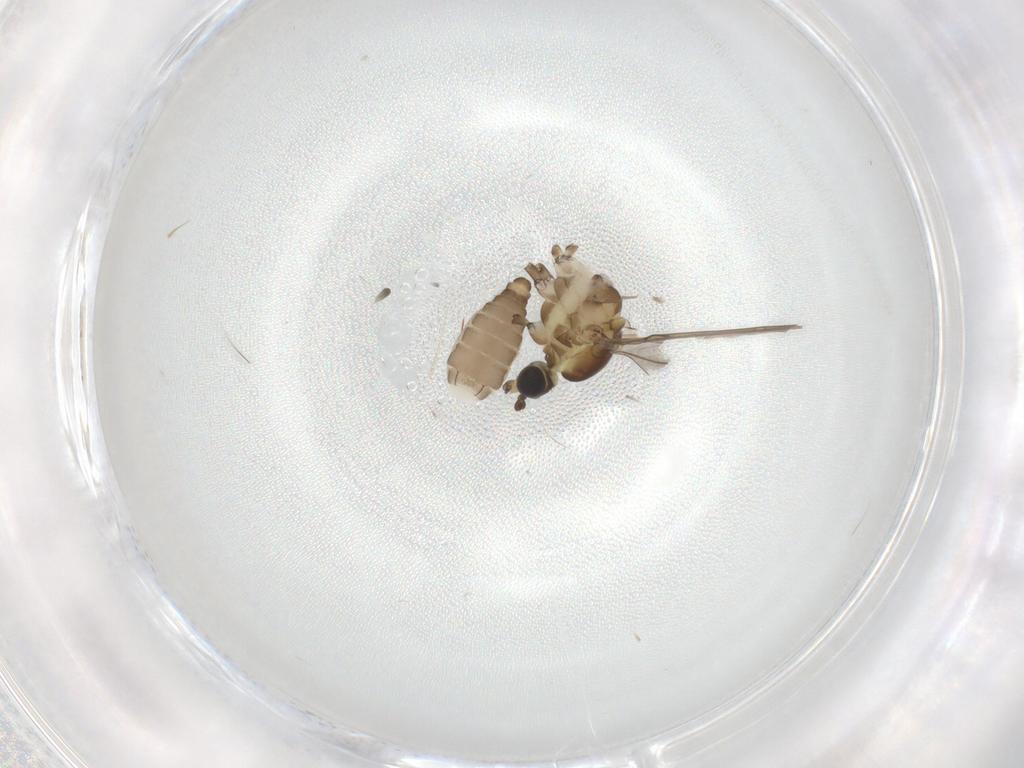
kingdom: Animalia
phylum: Arthropoda
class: Insecta
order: Diptera
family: Limoniidae
